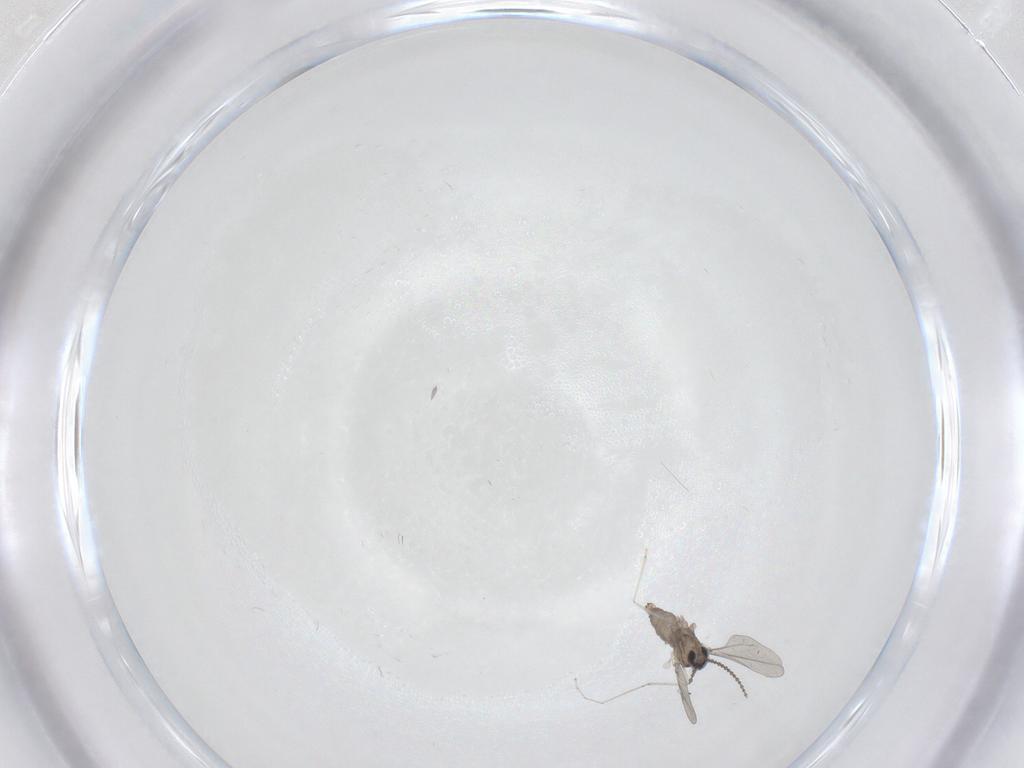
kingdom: Animalia
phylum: Arthropoda
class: Insecta
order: Diptera
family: Cecidomyiidae
